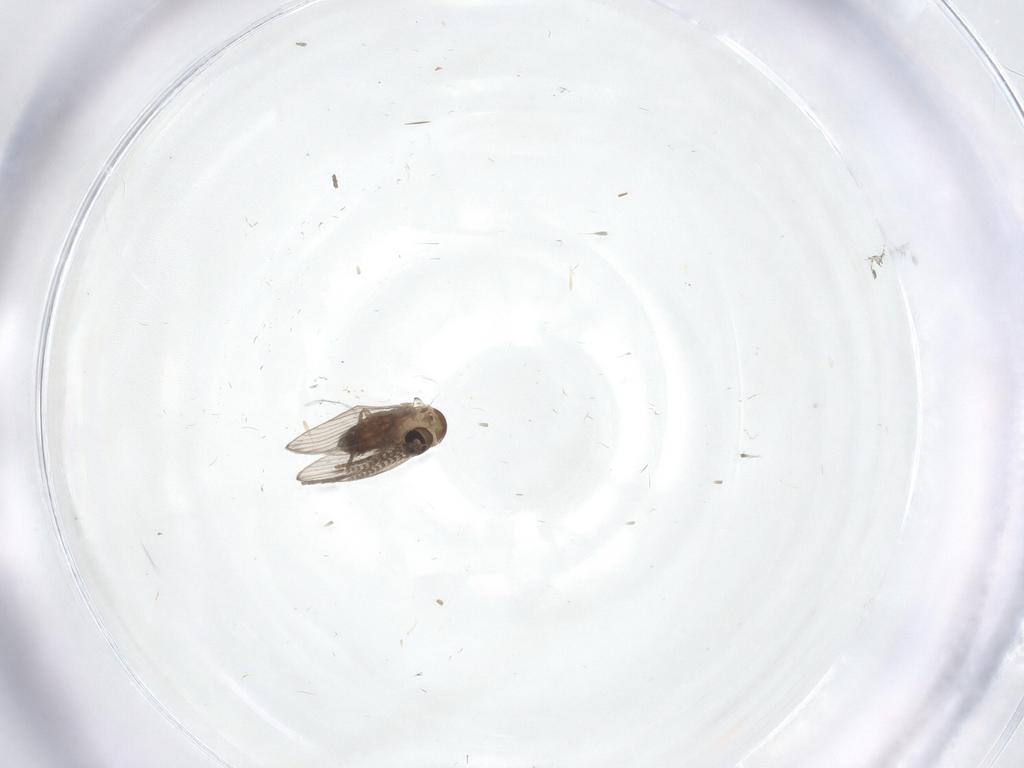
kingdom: Animalia
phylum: Arthropoda
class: Insecta
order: Diptera
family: Psychodidae
